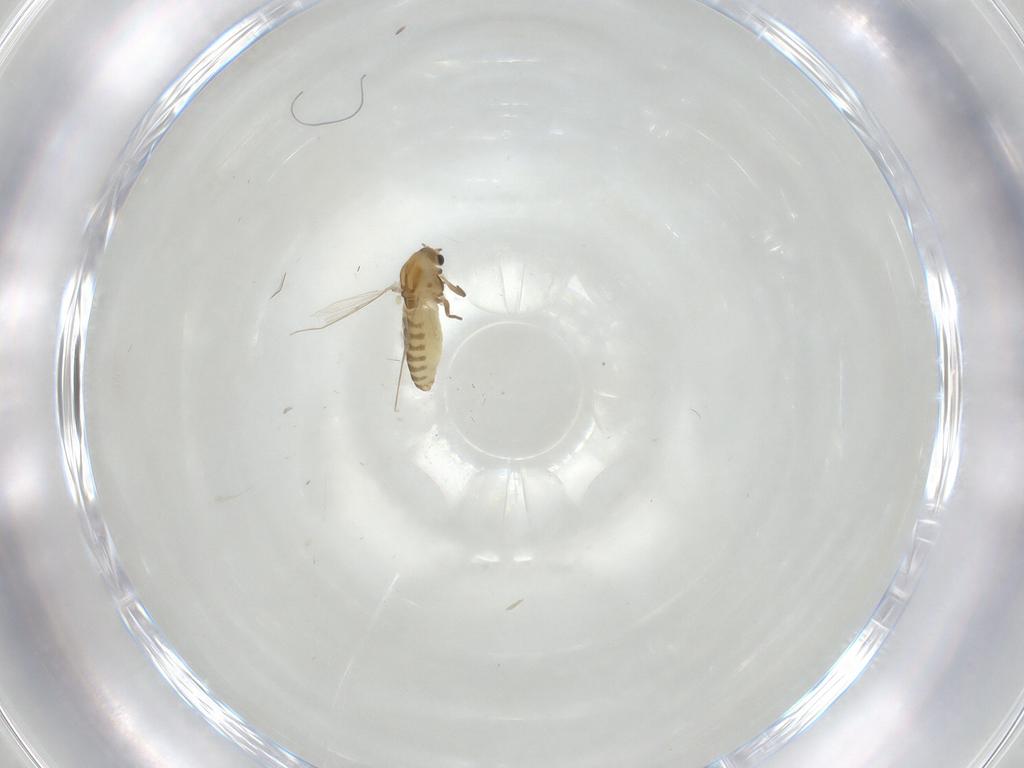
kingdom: Animalia
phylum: Arthropoda
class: Insecta
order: Diptera
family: Chironomidae
